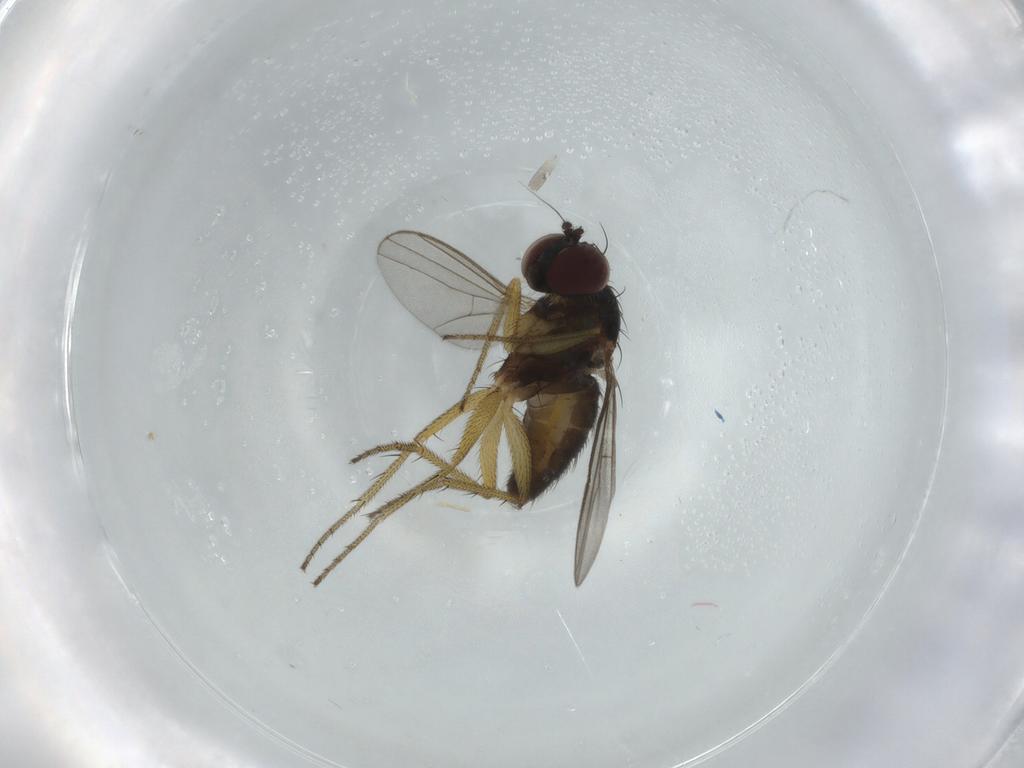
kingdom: Animalia
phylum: Arthropoda
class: Insecta
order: Diptera
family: Dolichopodidae
